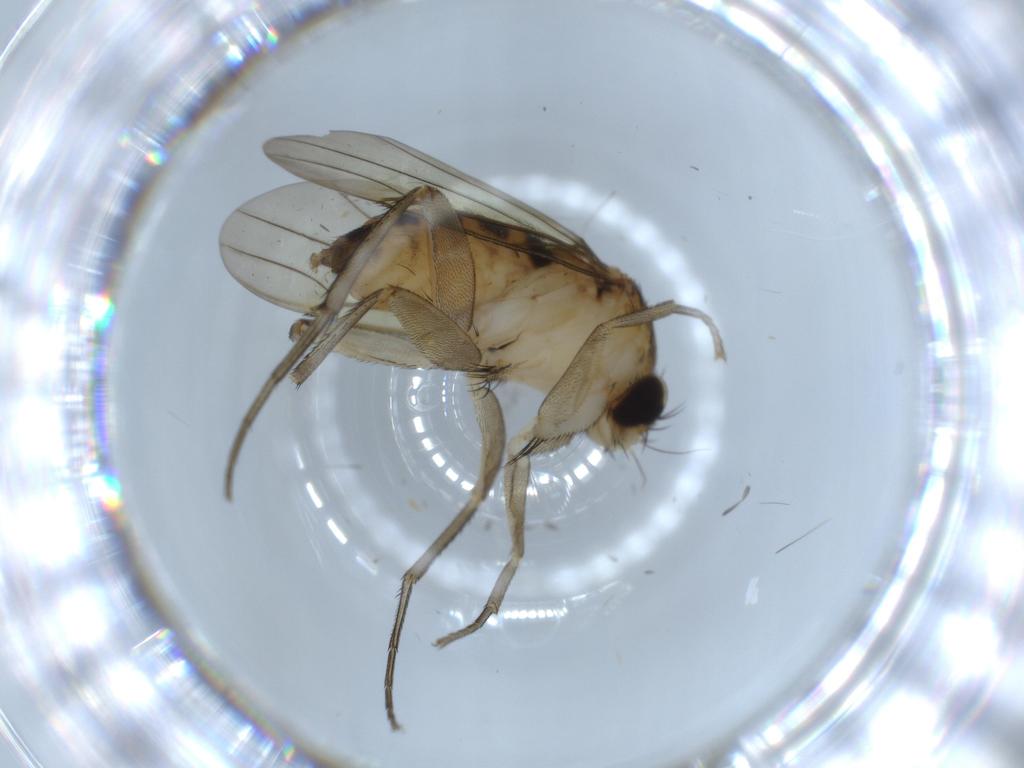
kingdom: Animalia
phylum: Arthropoda
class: Insecta
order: Diptera
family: Phoridae
